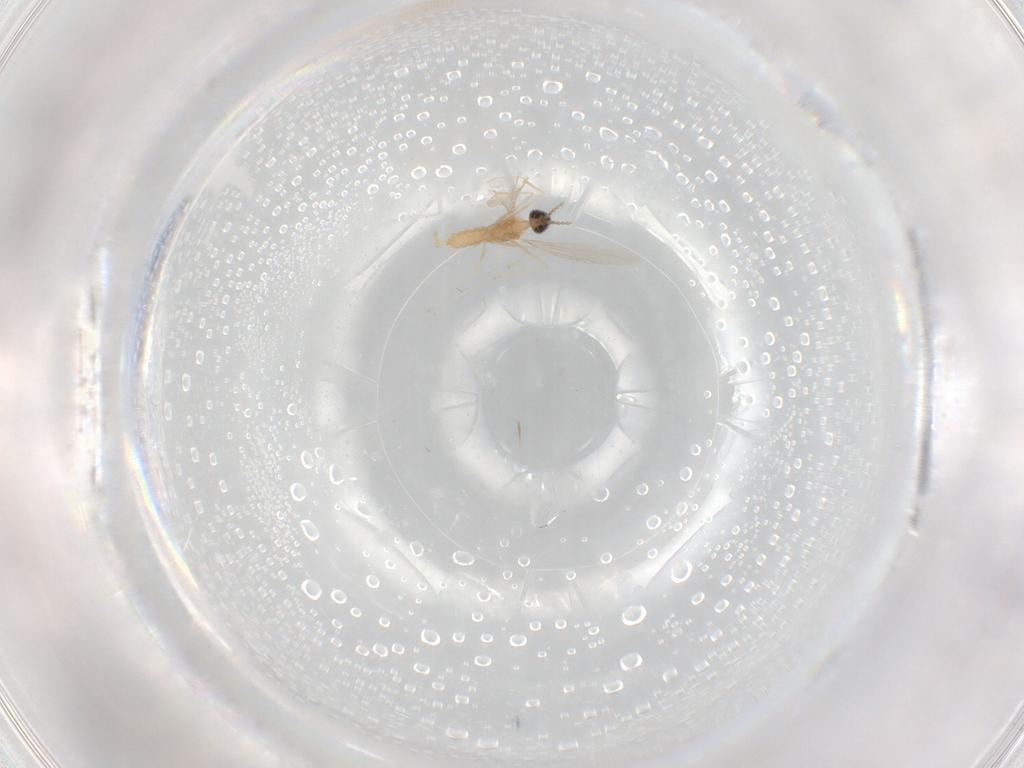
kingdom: Animalia
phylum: Arthropoda
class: Insecta
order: Diptera
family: Cecidomyiidae
